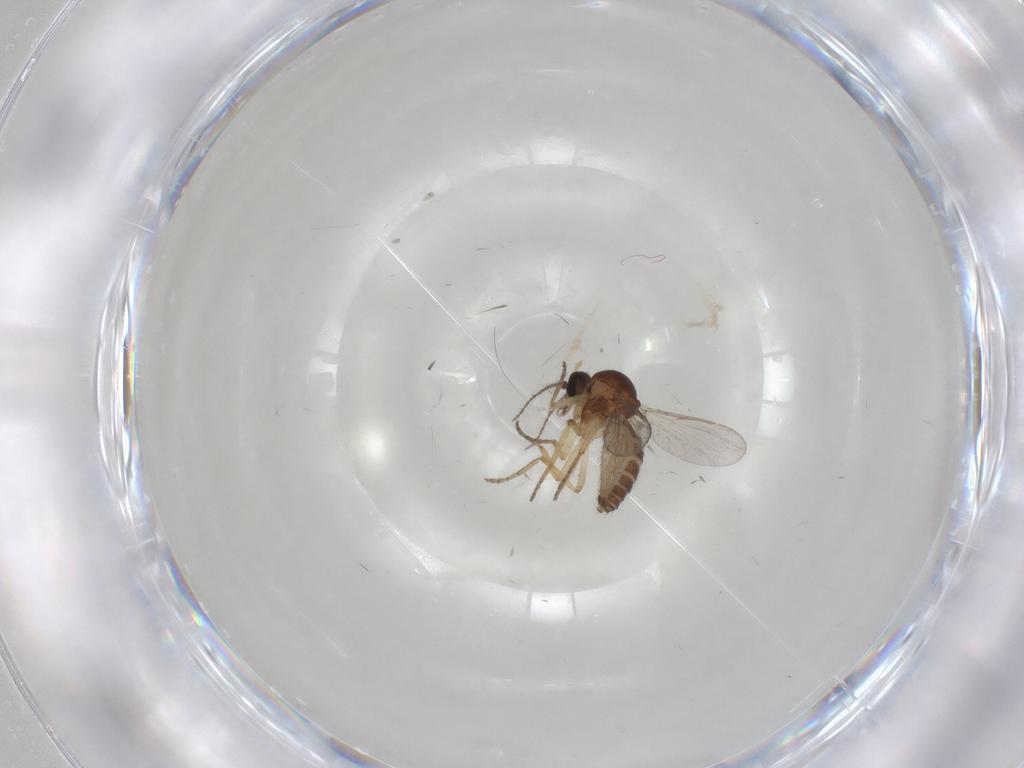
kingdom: Animalia
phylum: Arthropoda
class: Insecta
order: Diptera
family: Ceratopogonidae
